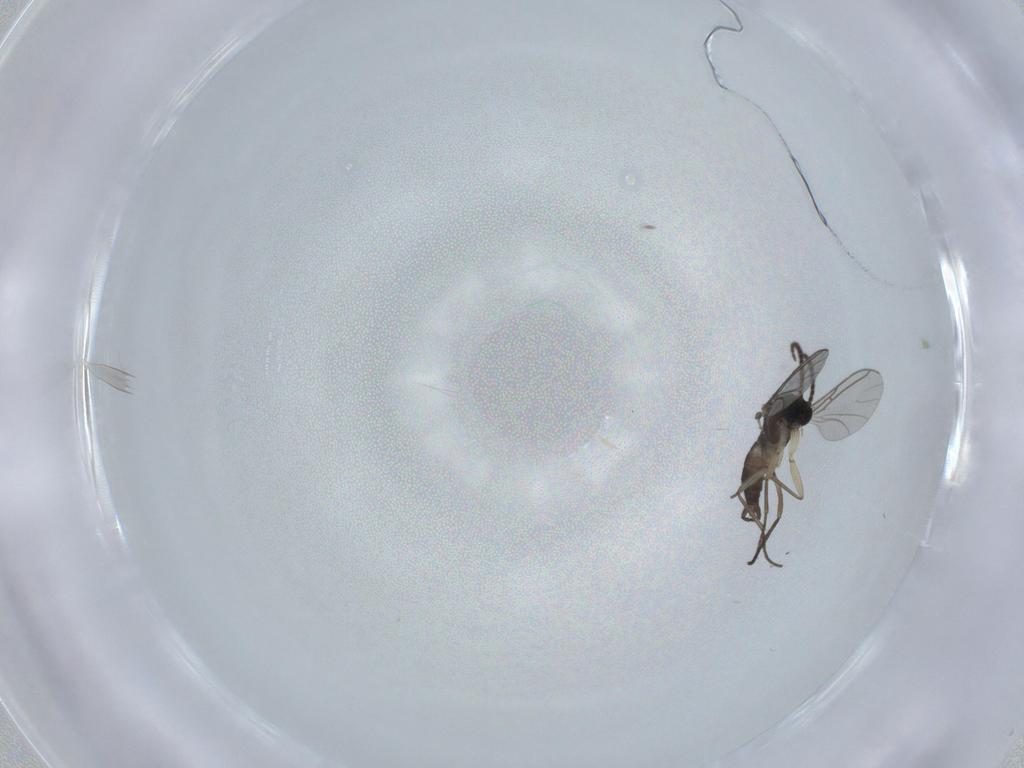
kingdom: Animalia
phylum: Arthropoda
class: Insecta
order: Diptera
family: Sciaridae
